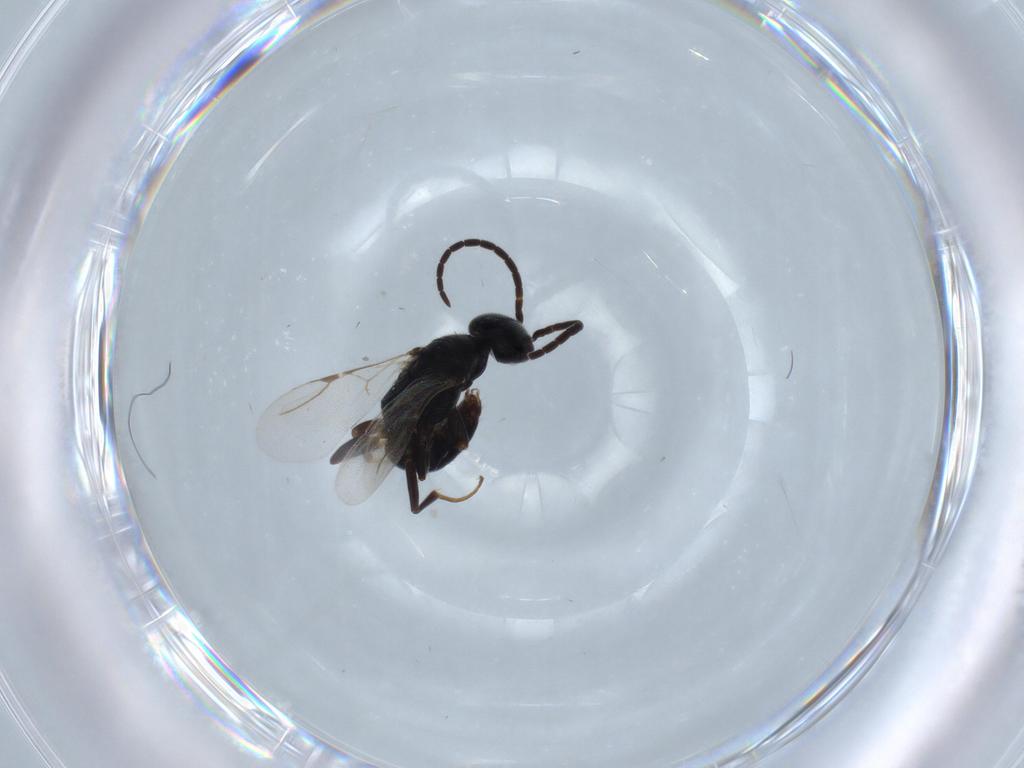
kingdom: Animalia
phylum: Arthropoda
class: Insecta
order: Hymenoptera
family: Bethylidae
